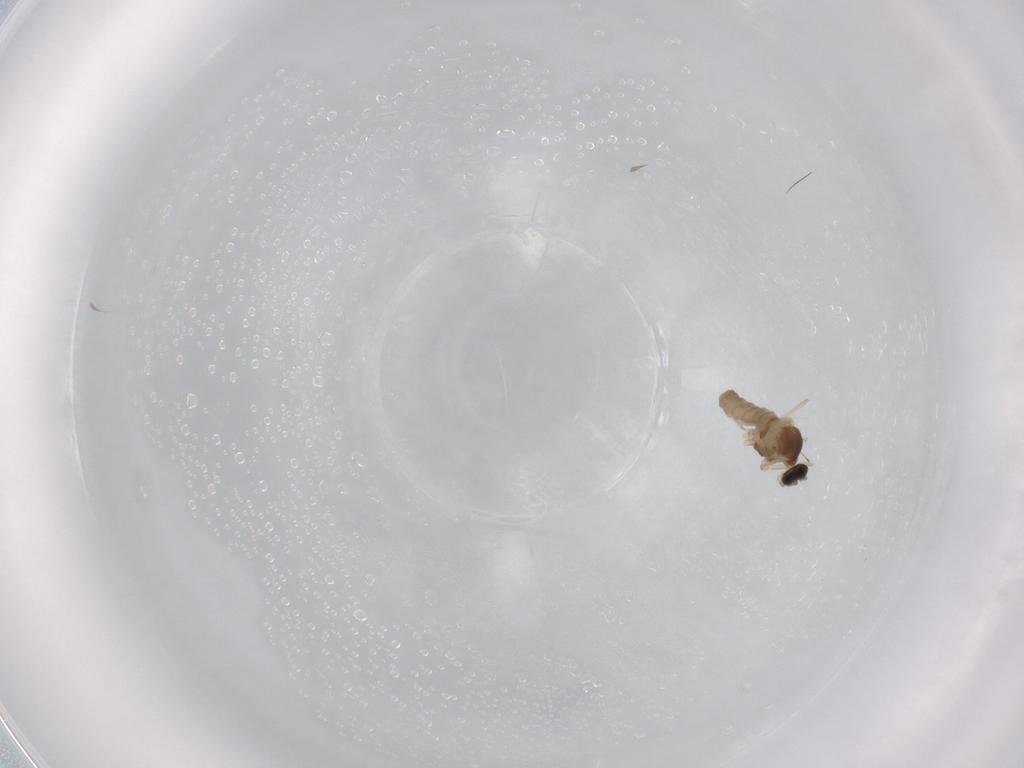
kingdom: Animalia
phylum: Arthropoda
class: Insecta
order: Diptera
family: Cecidomyiidae
